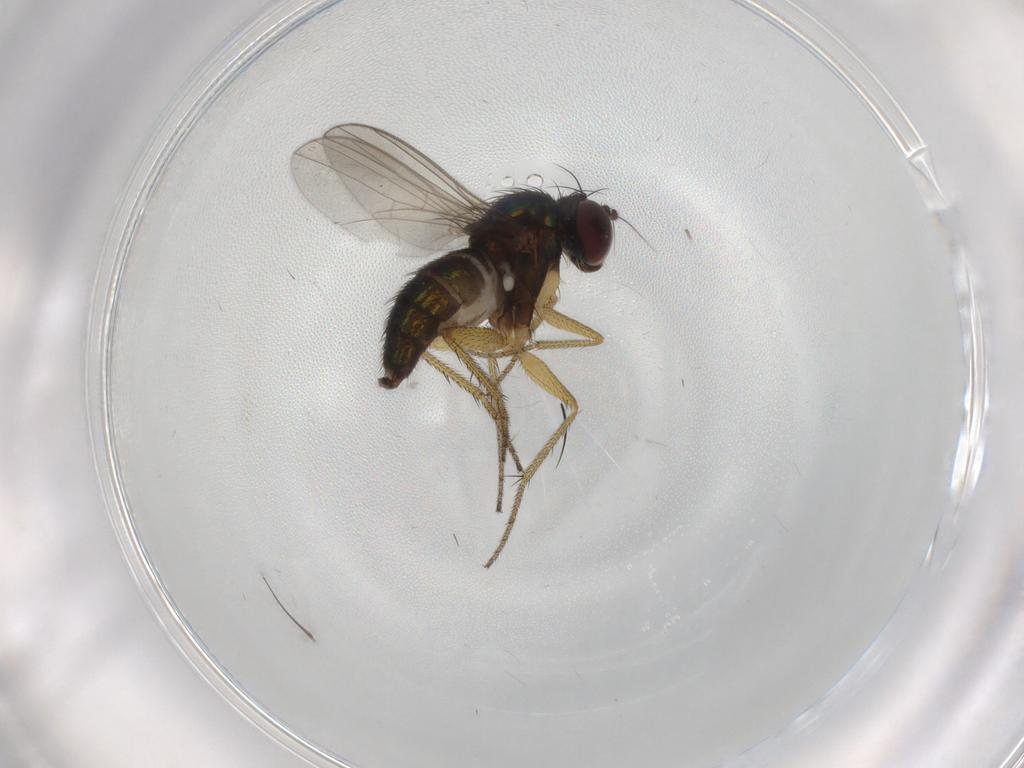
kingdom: Animalia
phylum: Arthropoda
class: Insecta
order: Diptera
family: Dolichopodidae
